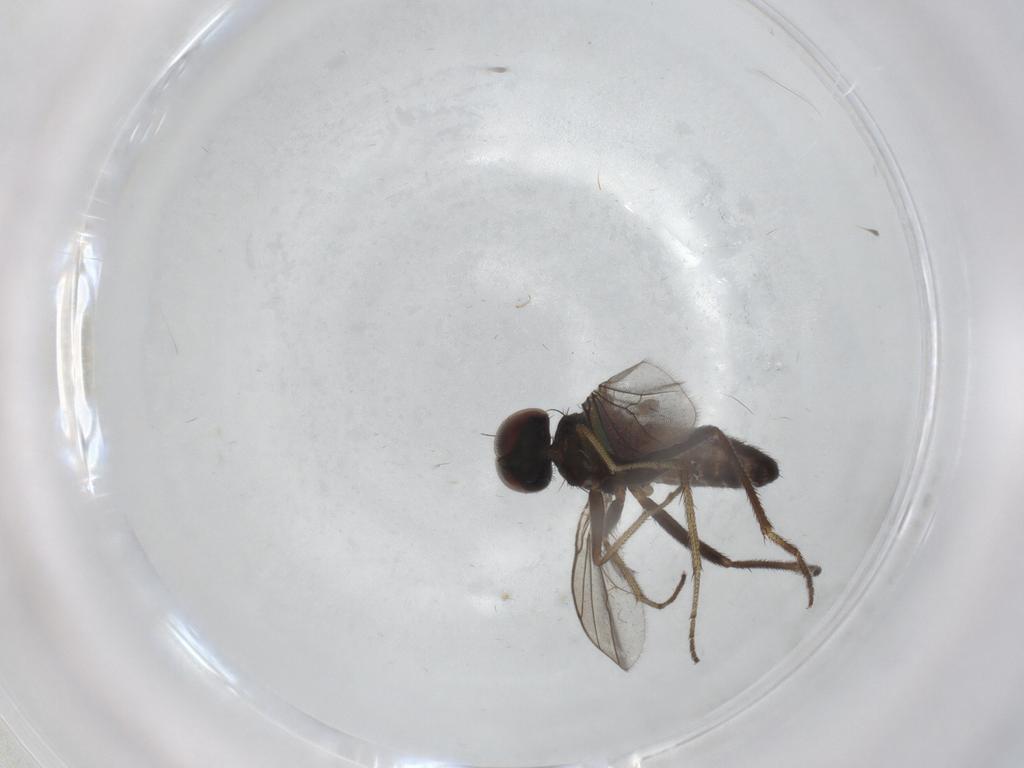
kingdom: Animalia
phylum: Arthropoda
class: Insecta
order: Diptera
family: Dolichopodidae
